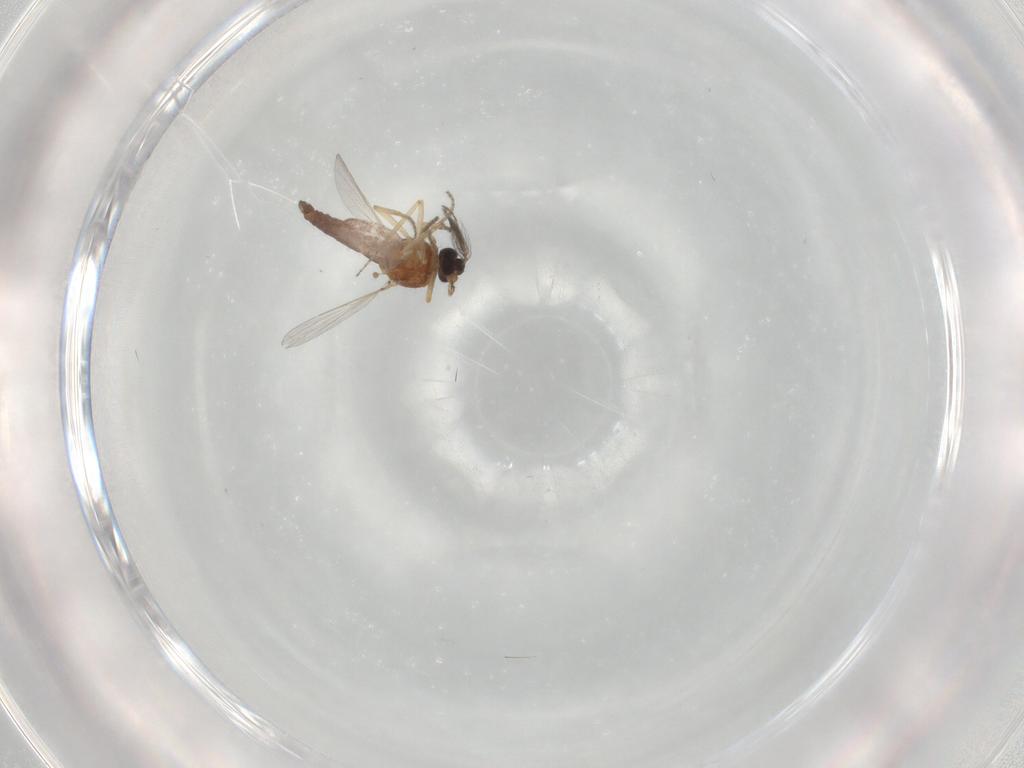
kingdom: Animalia
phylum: Arthropoda
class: Insecta
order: Diptera
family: Ceratopogonidae
